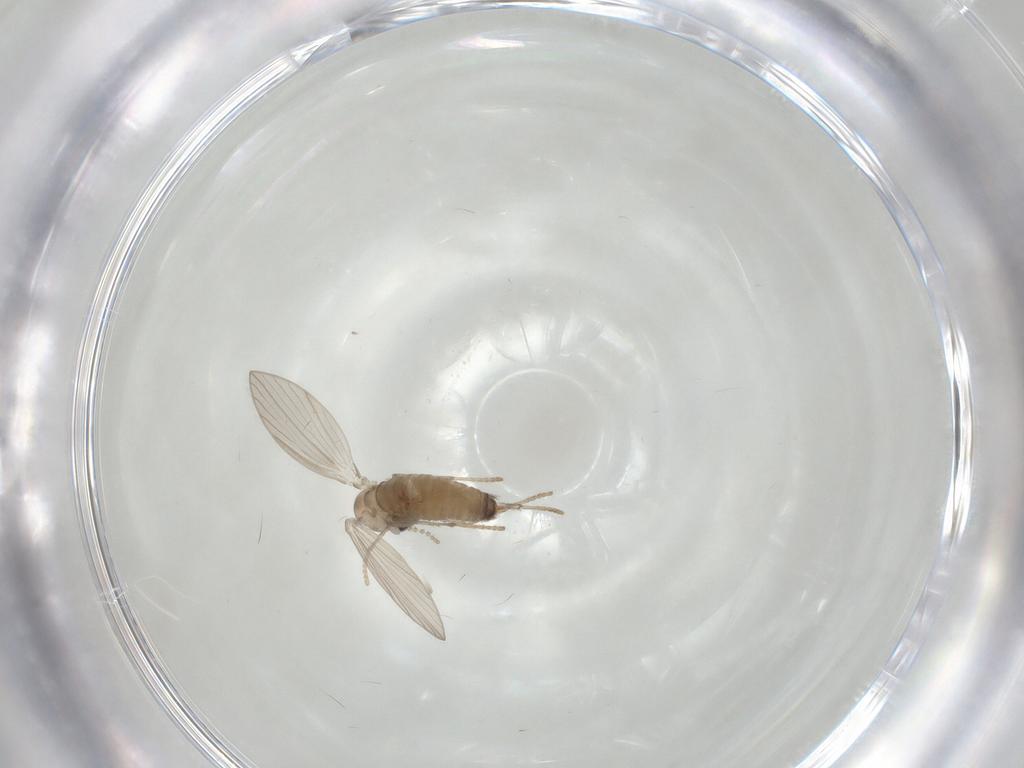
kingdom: Animalia
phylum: Arthropoda
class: Insecta
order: Diptera
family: Psychodidae
